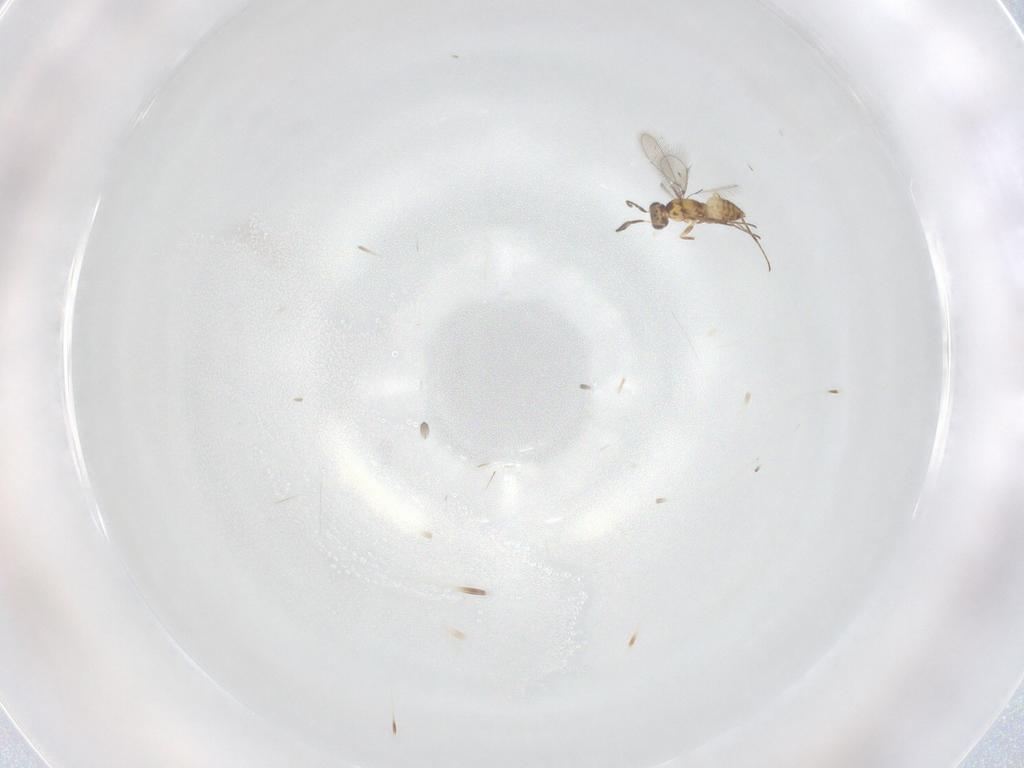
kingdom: Animalia
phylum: Arthropoda
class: Insecta
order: Hymenoptera
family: Mymaridae
